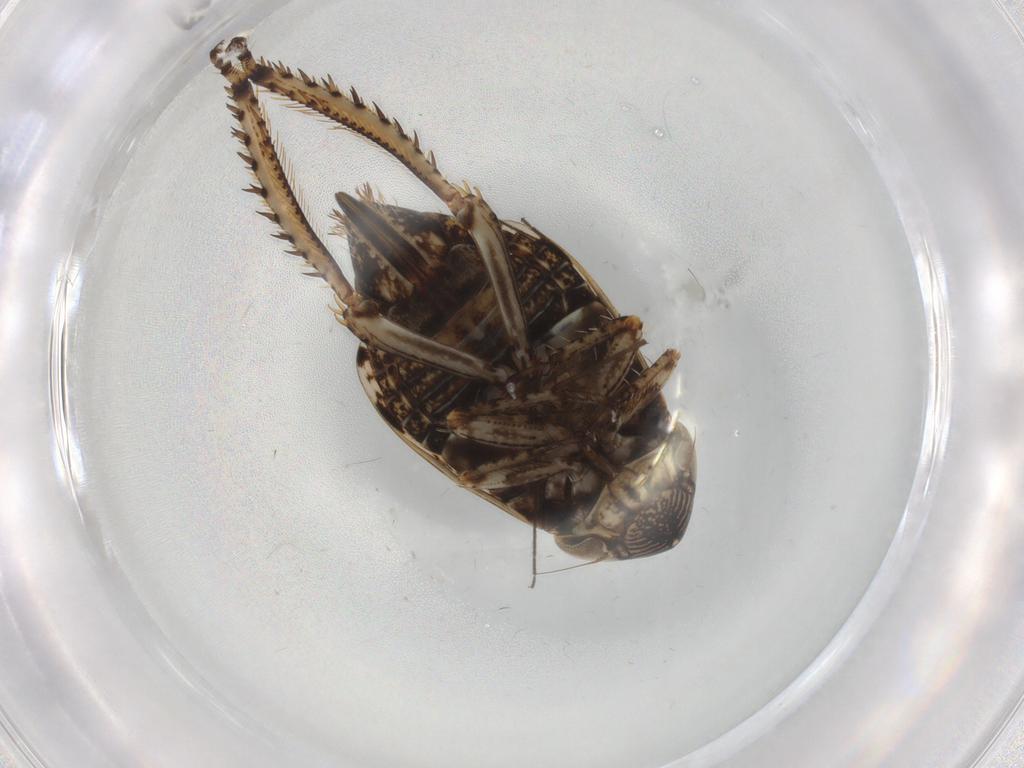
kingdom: Animalia
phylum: Arthropoda
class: Insecta
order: Hemiptera
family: Cicadellidae
